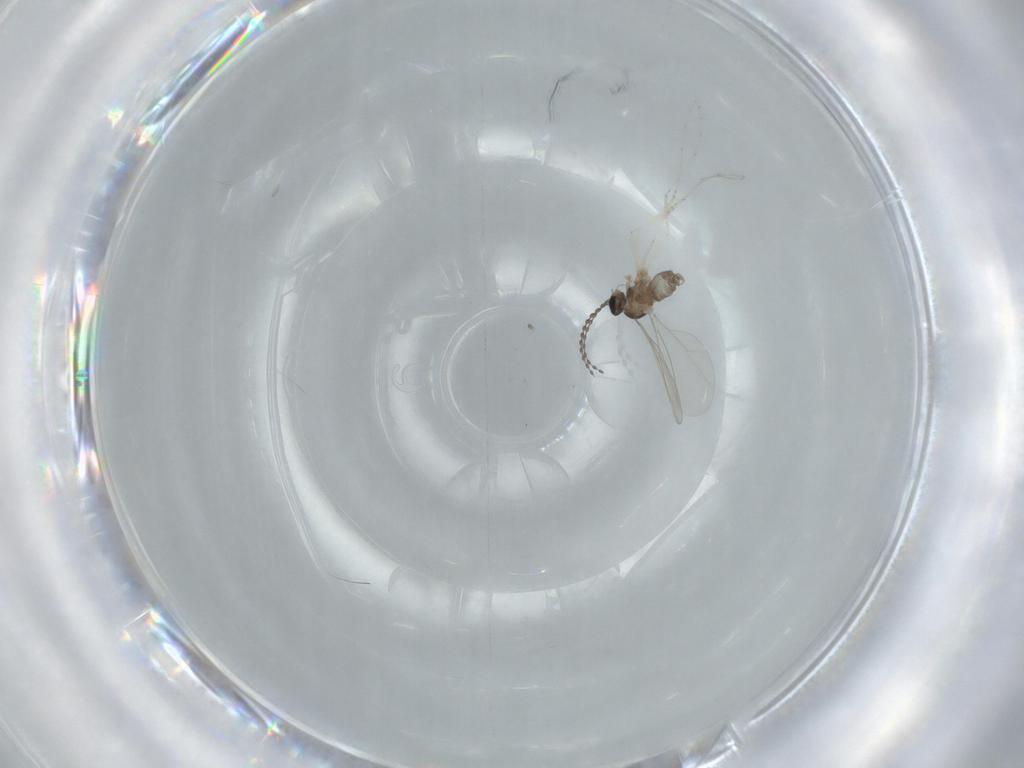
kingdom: Animalia
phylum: Arthropoda
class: Insecta
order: Diptera
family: Cecidomyiidae
